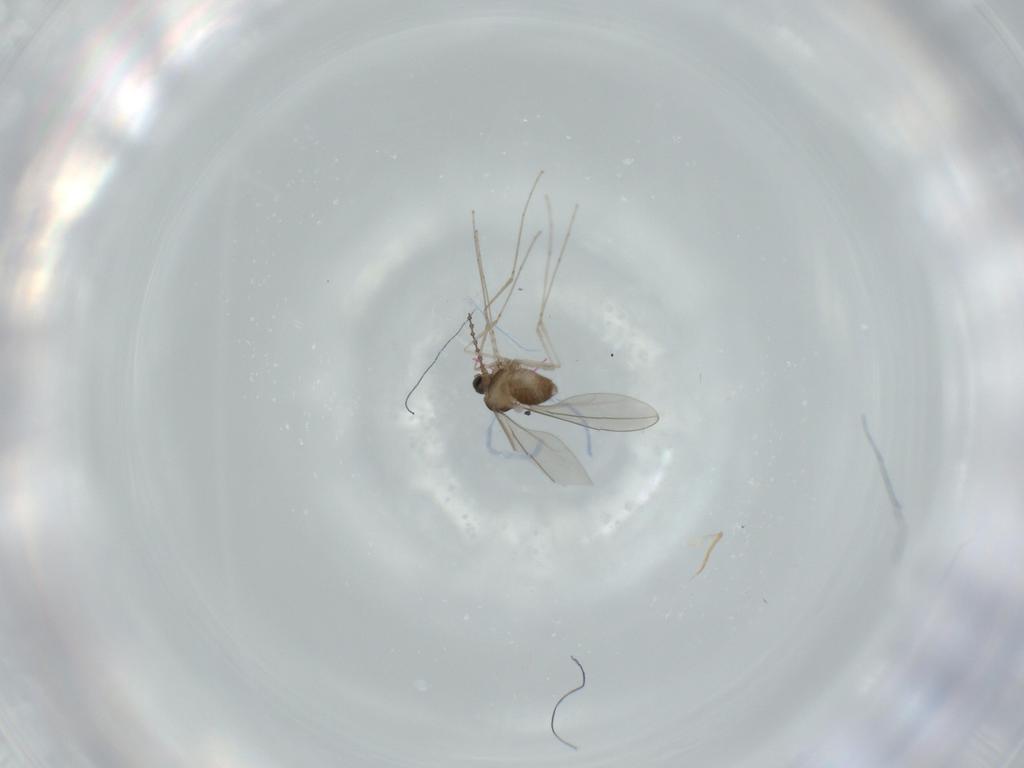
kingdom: Animalia
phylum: Arthropoda
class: Insecta
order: Diptera
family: Cecidomyiidae
